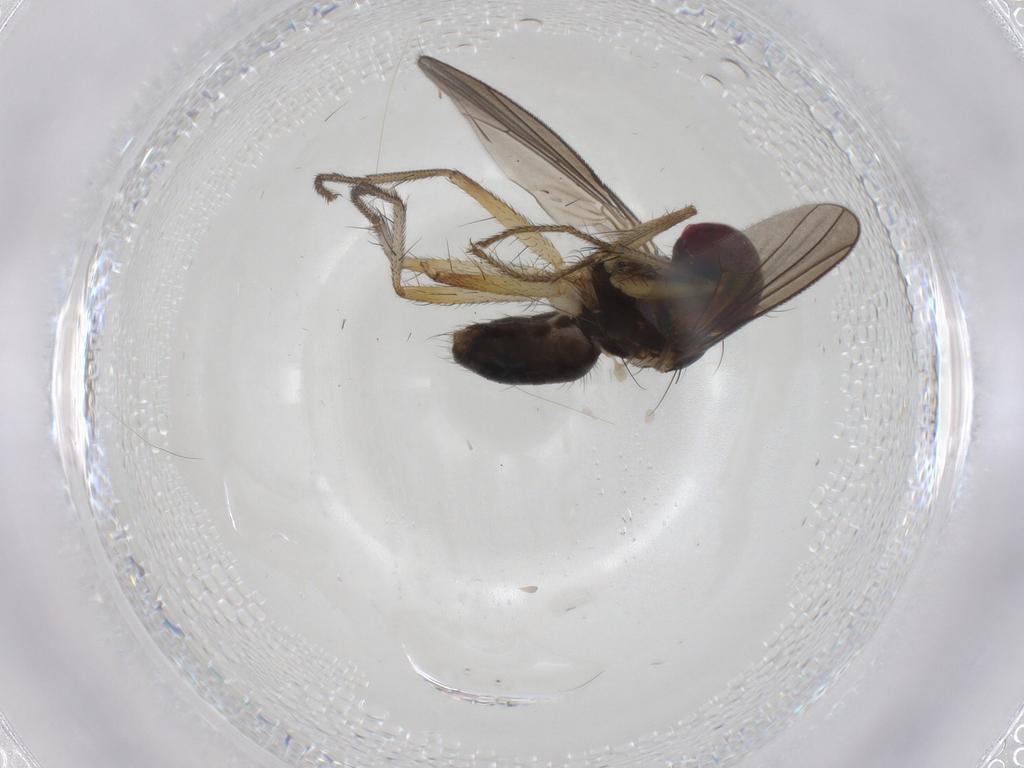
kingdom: Animalia
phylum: Arthropoda
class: Insecta
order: Diptera
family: Anthomyiidae
